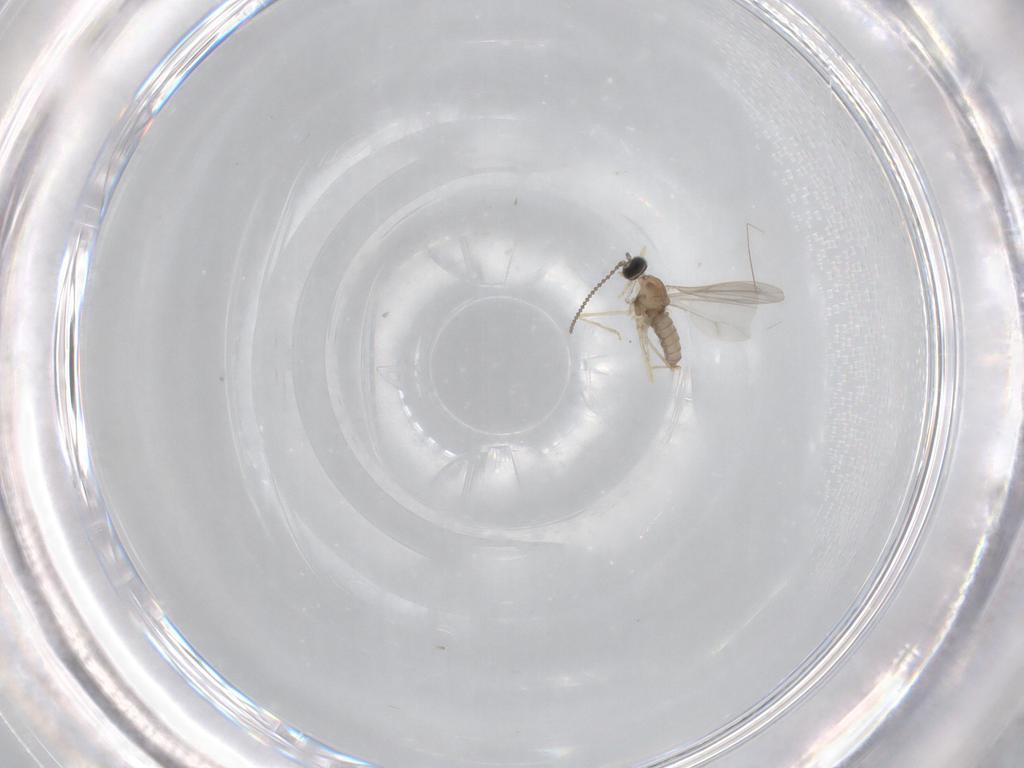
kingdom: Animalia
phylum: Arthropoda
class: Insecta
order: Diptera
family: Cecidomyiidae
